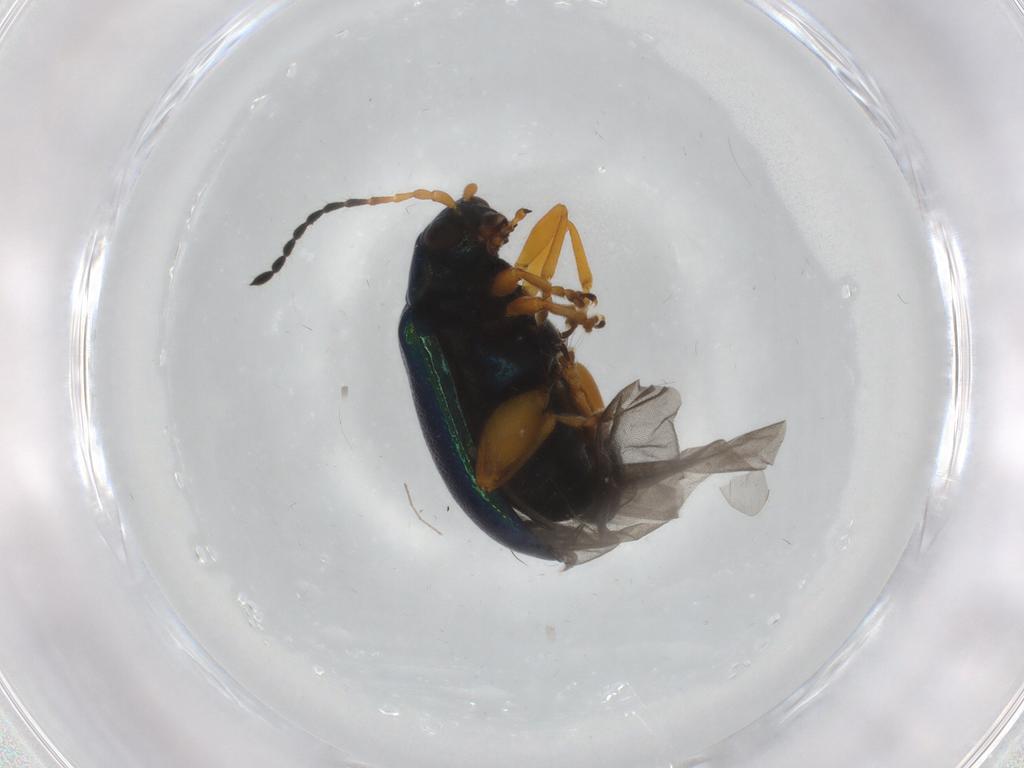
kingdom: Animalia
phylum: Arthropoda
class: Insecta
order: Coleoptera
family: Chrysomelidae
